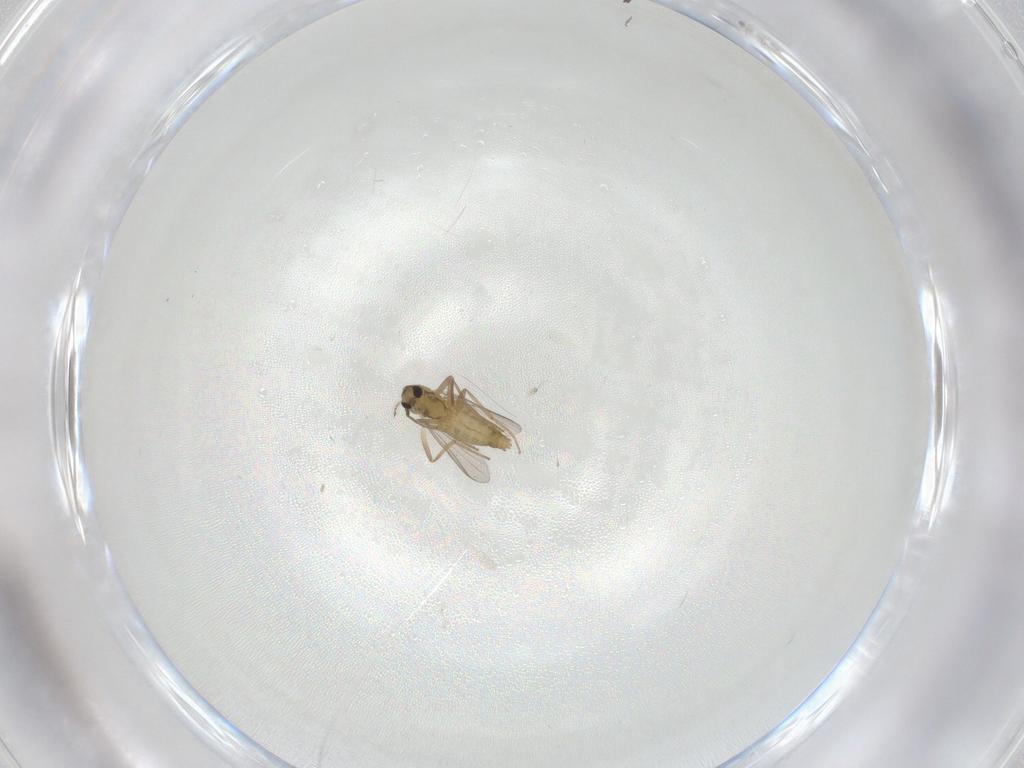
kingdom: Animalia
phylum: Arthropoda
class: Insecta
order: Diptera
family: Chironomidae
